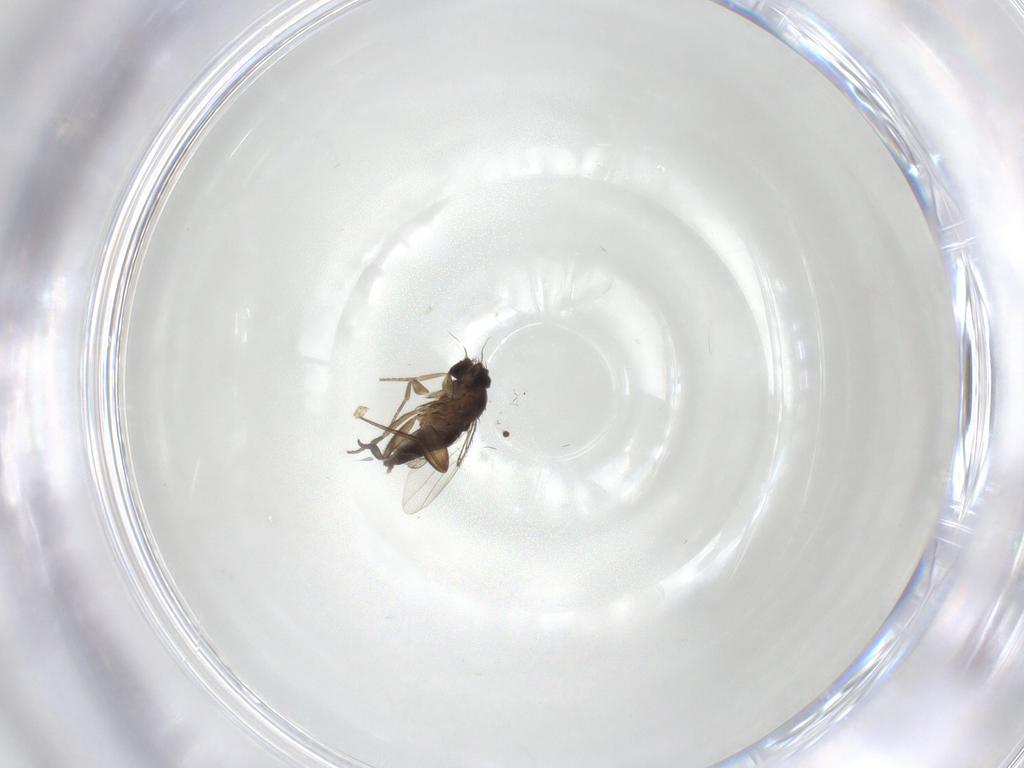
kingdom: Animalia
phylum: Arthropoda
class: Insecta
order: Diptera
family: Phoridae
